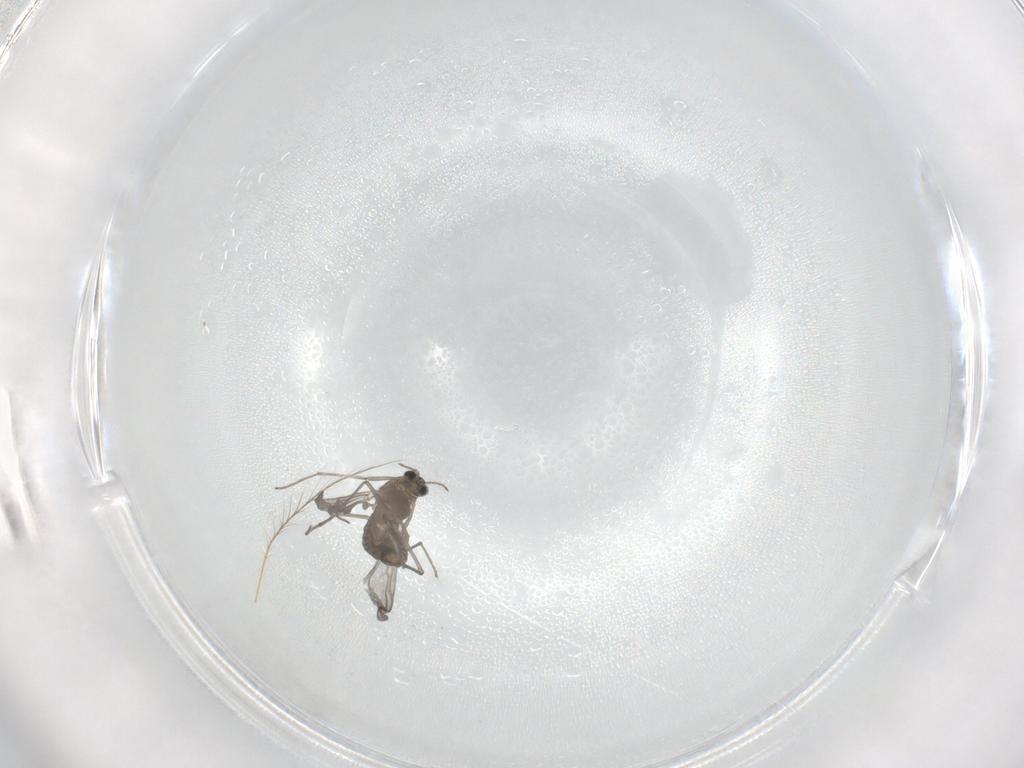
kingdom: Animalia
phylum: Arthropoda
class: Insecta
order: Diptera
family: Chironomidae
